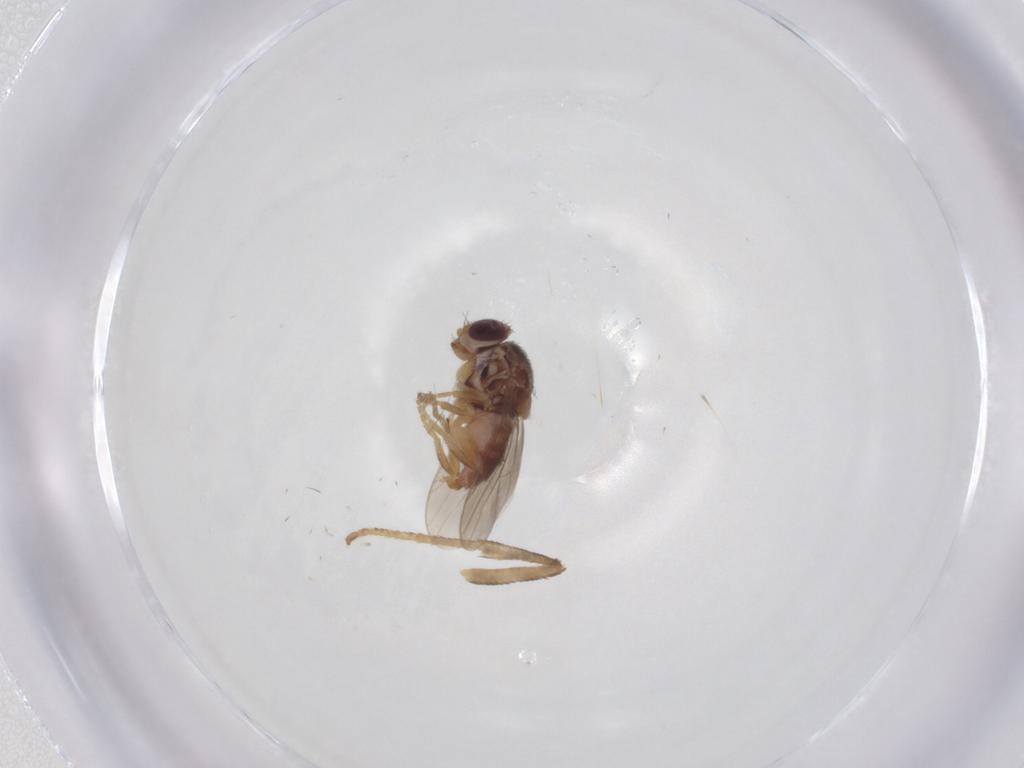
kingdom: Animalia
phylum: Arthropoda
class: Insecta
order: Diptera
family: Chloropidae
